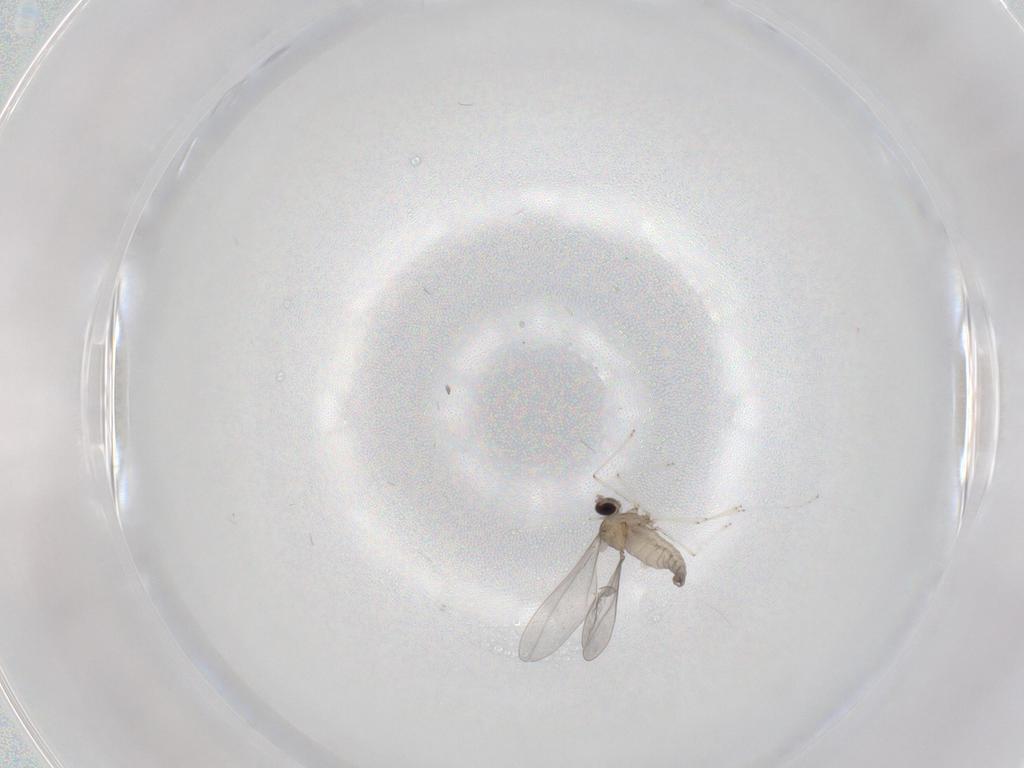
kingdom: Animalia
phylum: Arthropoda
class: Insecta
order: Diptera
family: Cecidomyiidae
